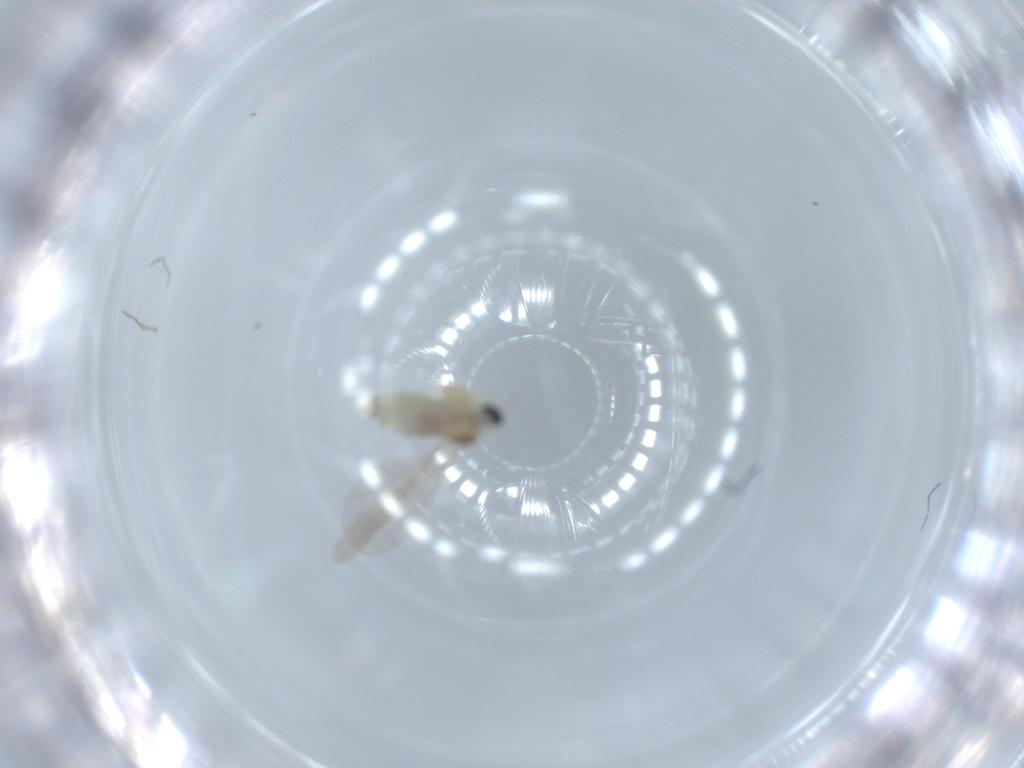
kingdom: Animalia
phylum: Arthropoda
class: Insecta
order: Diptera
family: Cecidomyiidae
